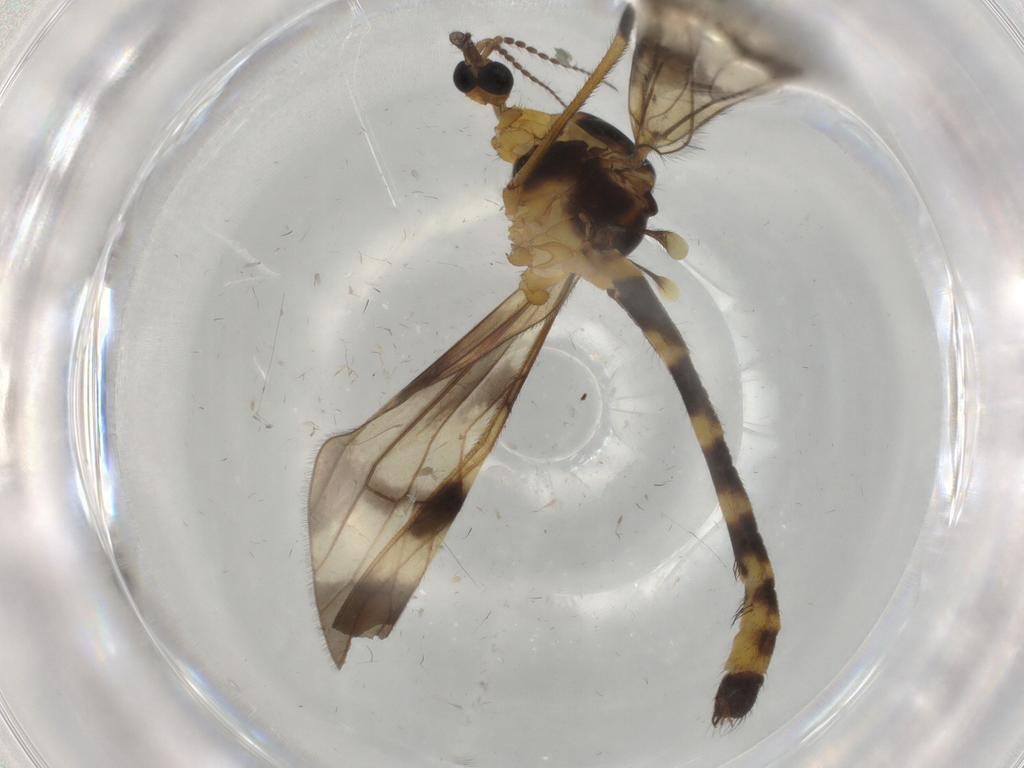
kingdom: Animalia
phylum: Arthropoda
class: Insecta
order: Diptera
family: Limoniidae
